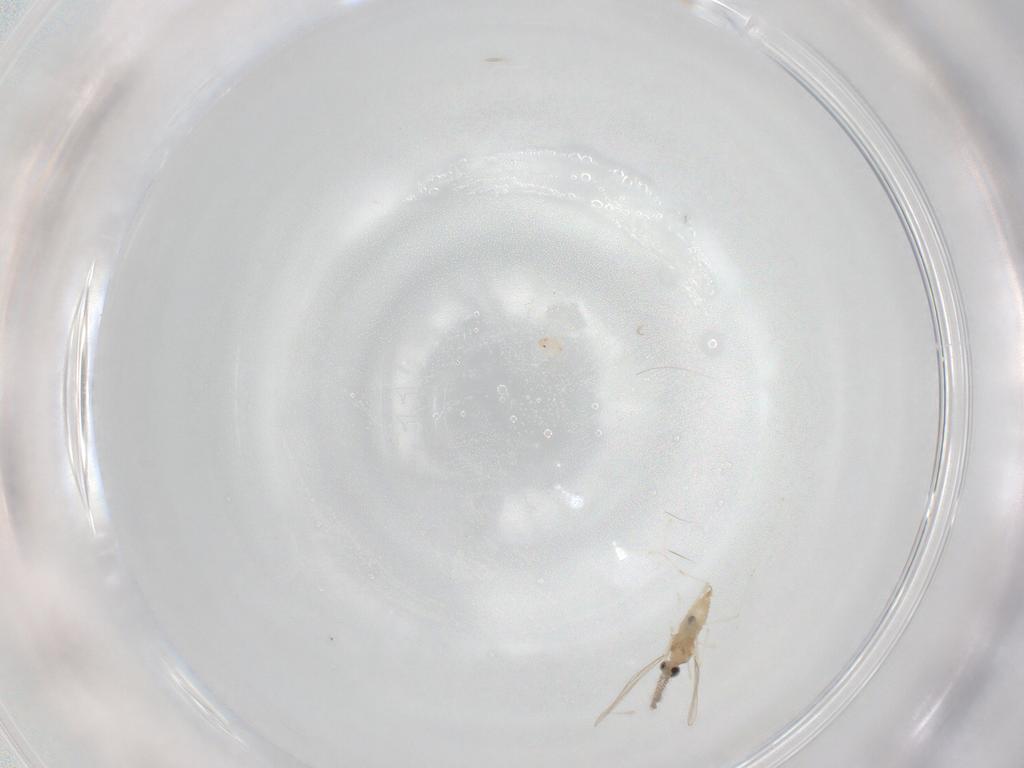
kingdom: Animalia
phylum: Arthropoda
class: Insecta
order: Diptera
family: Cecidomyiidae
